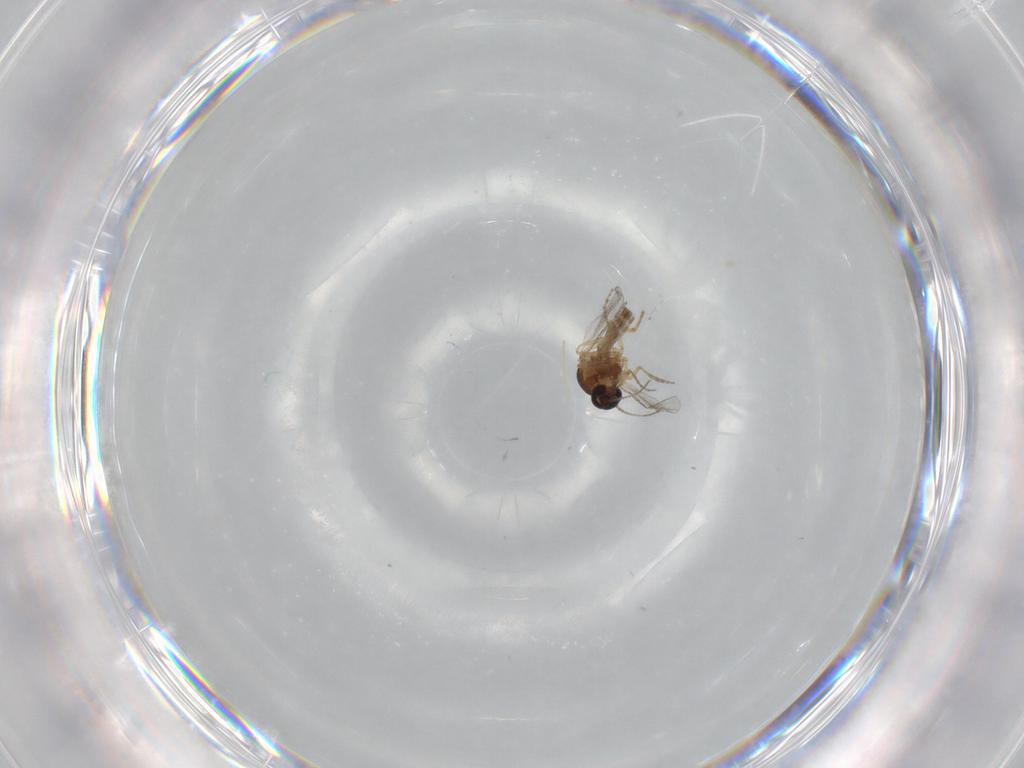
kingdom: Animalia
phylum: Arthropoda
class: Insecta
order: Diptera
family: Ceratopogonidae
